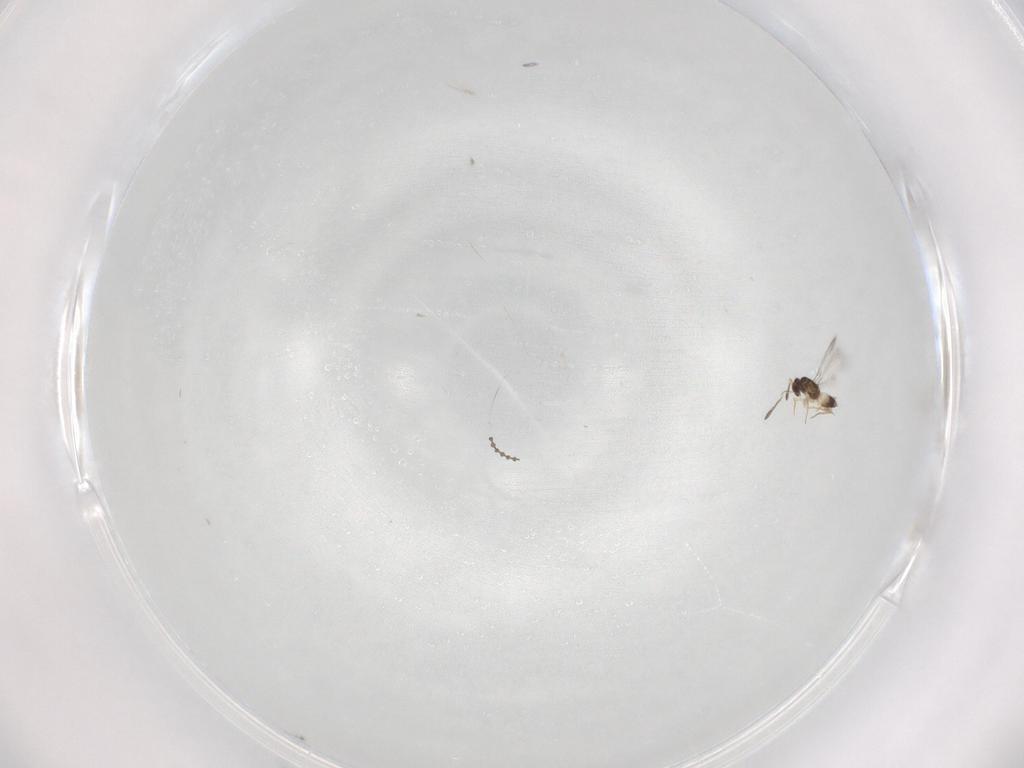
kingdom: Animalia
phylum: Arthropoda
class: Insecta
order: Hymenoptera
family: Mymaridae
